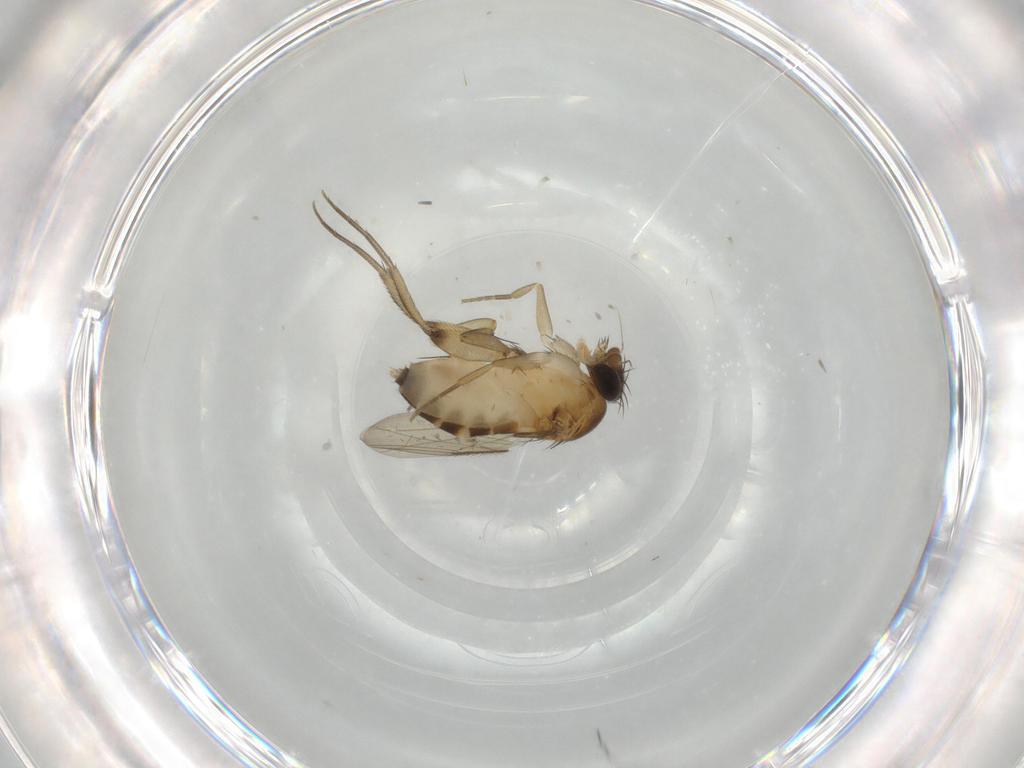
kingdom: Animalia
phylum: Arthropoda
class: Insecta
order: Diptera
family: Phoridae
